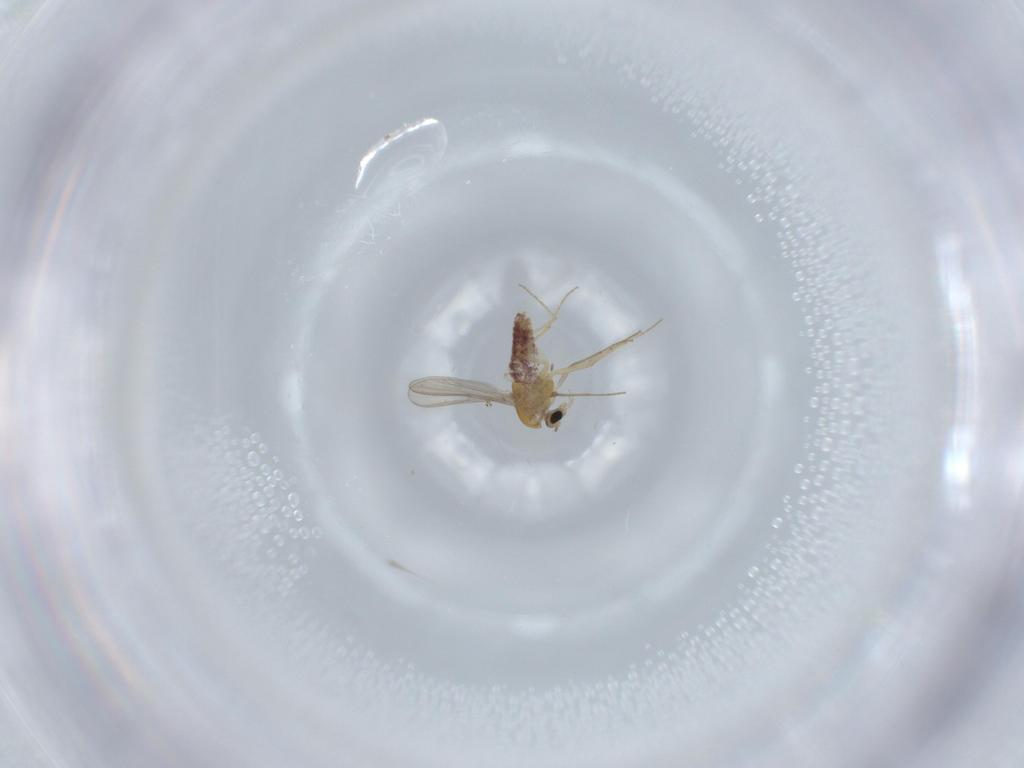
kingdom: Animalia
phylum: Arthropoda
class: Insecta
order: Diptera
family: Chironomidae
